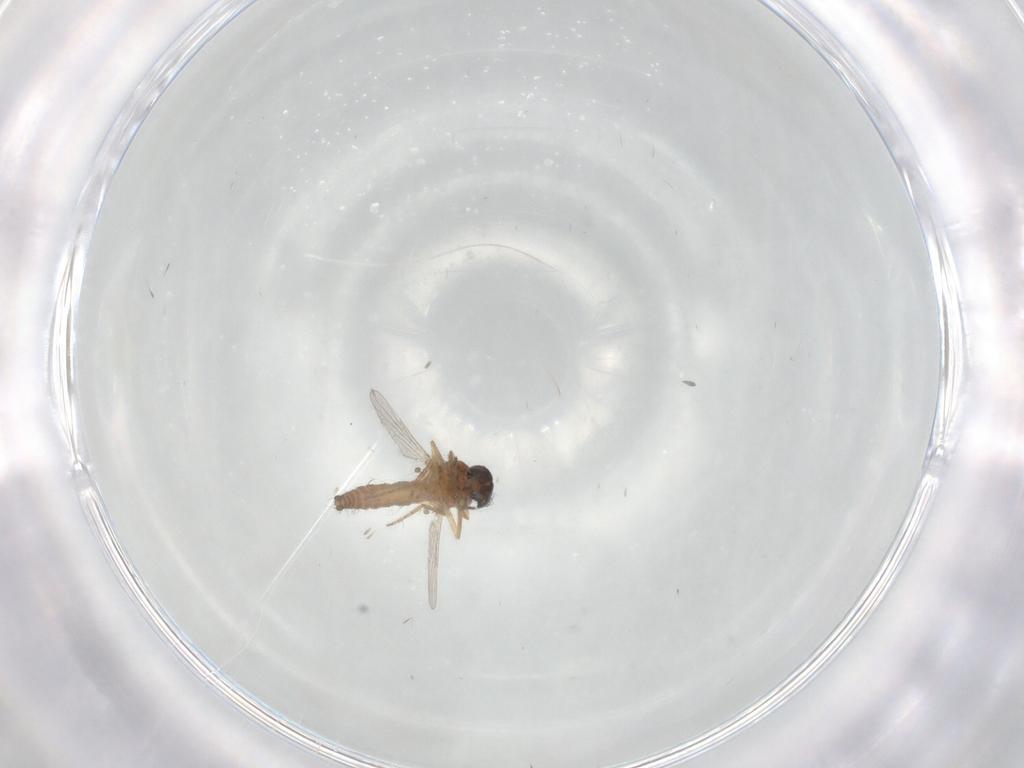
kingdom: Animalia
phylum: Arthropoda
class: Insecta
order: Diptera
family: Ceratopogonidae
